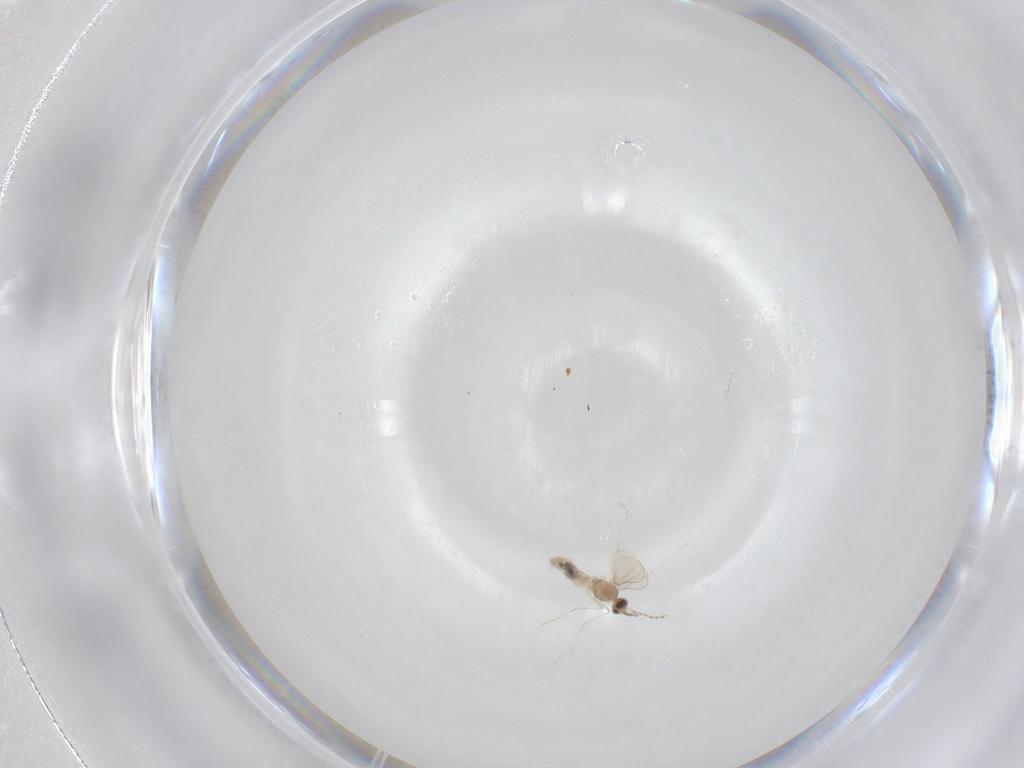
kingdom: Animalia
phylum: Arthropoda
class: Insecta
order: Diptera
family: Cecidomyiidae
